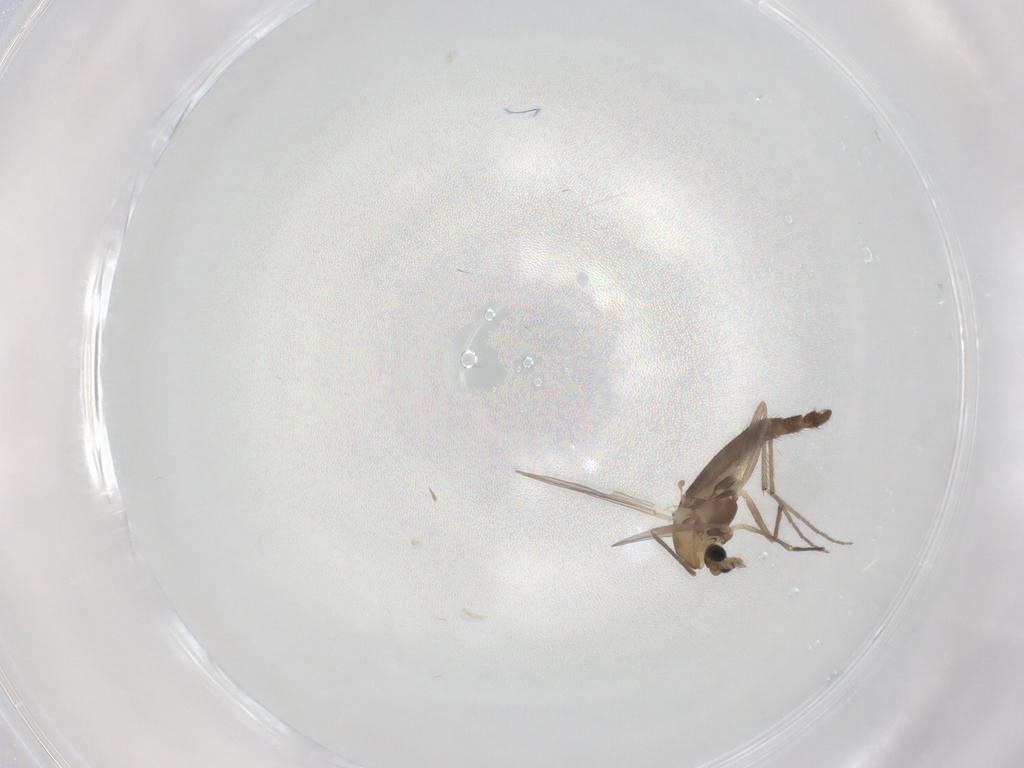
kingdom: Animalia
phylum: Arthropoda
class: Insecta
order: Diptera
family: Chironomidae
